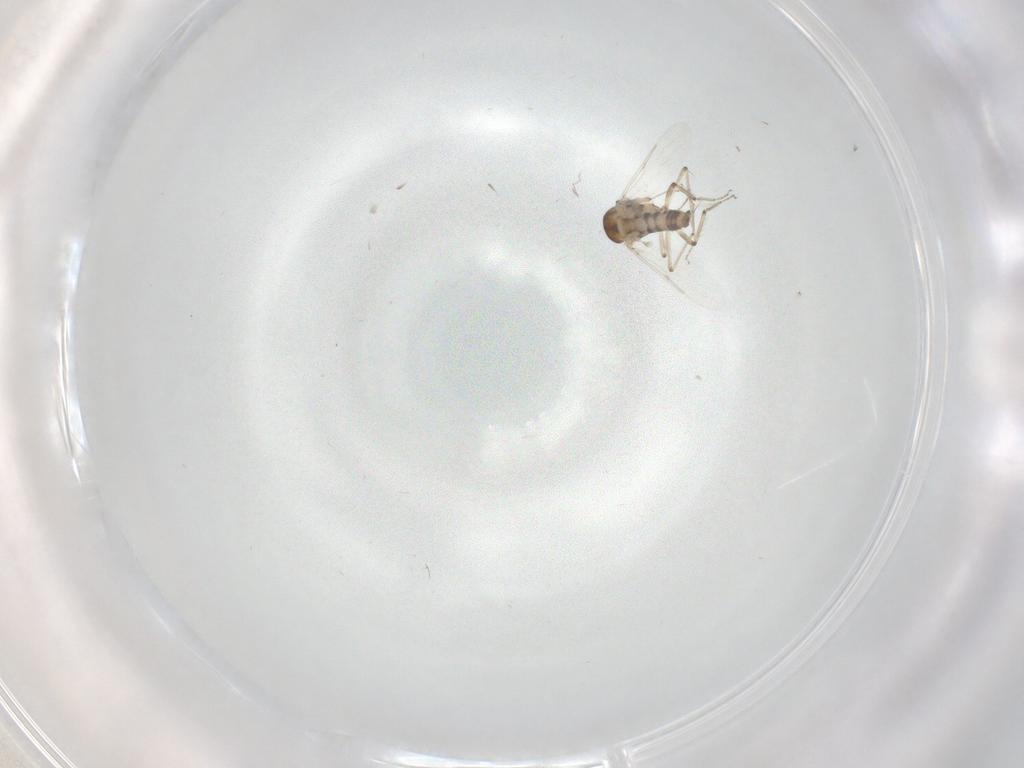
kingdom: Animalia
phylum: Arthropoda
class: Insecta
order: Diptera
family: Ceratopogonidae
